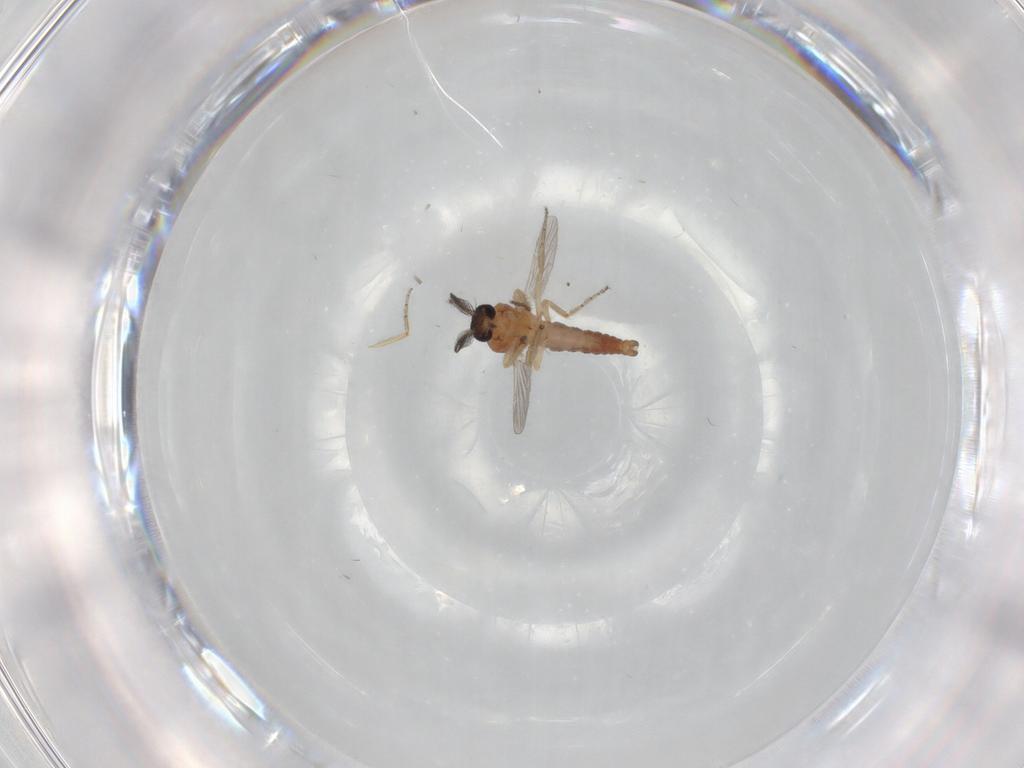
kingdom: Animalia
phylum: Arthropoda
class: Insecta
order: Diptera
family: Ceratopogonidae
